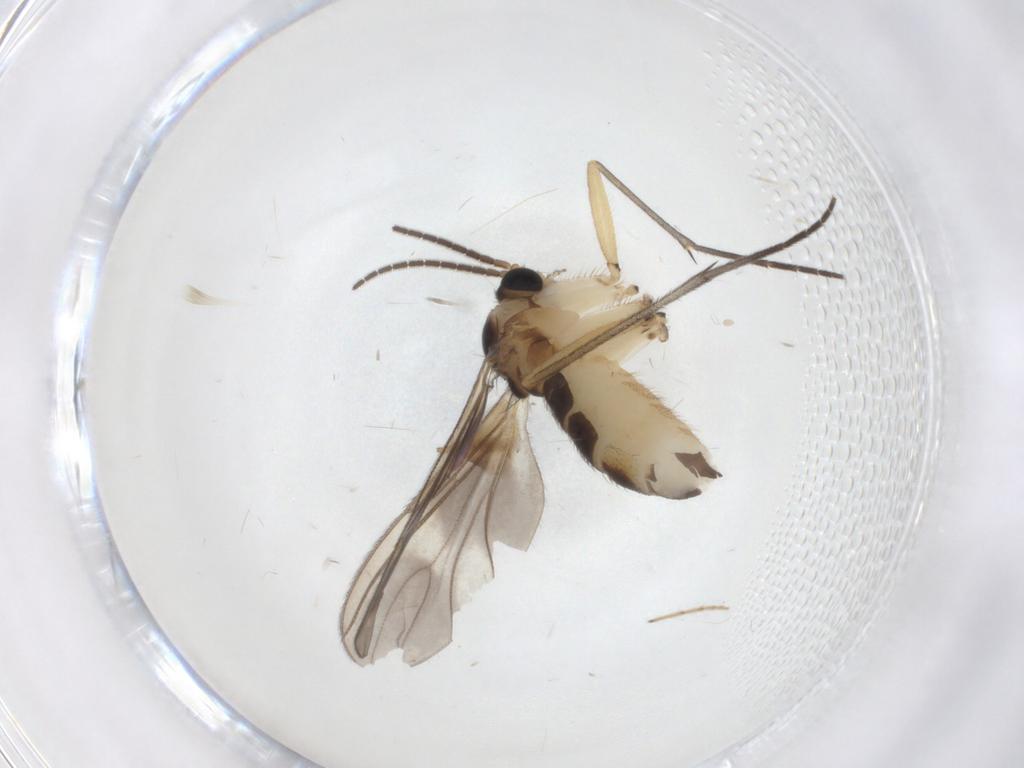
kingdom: Animalia
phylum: Arthropoda
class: Insecta
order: Diptera
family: Sciaridae
